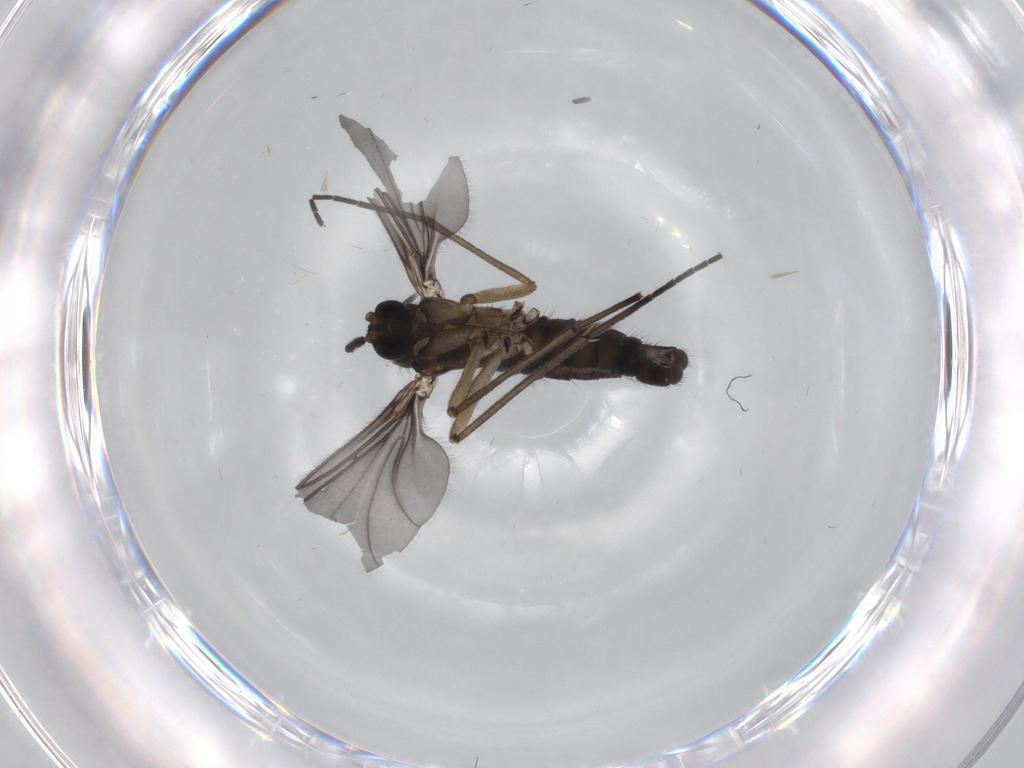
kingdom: Animalia
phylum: Arthropoda
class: Insecta
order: Diptera
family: Sciaridae
